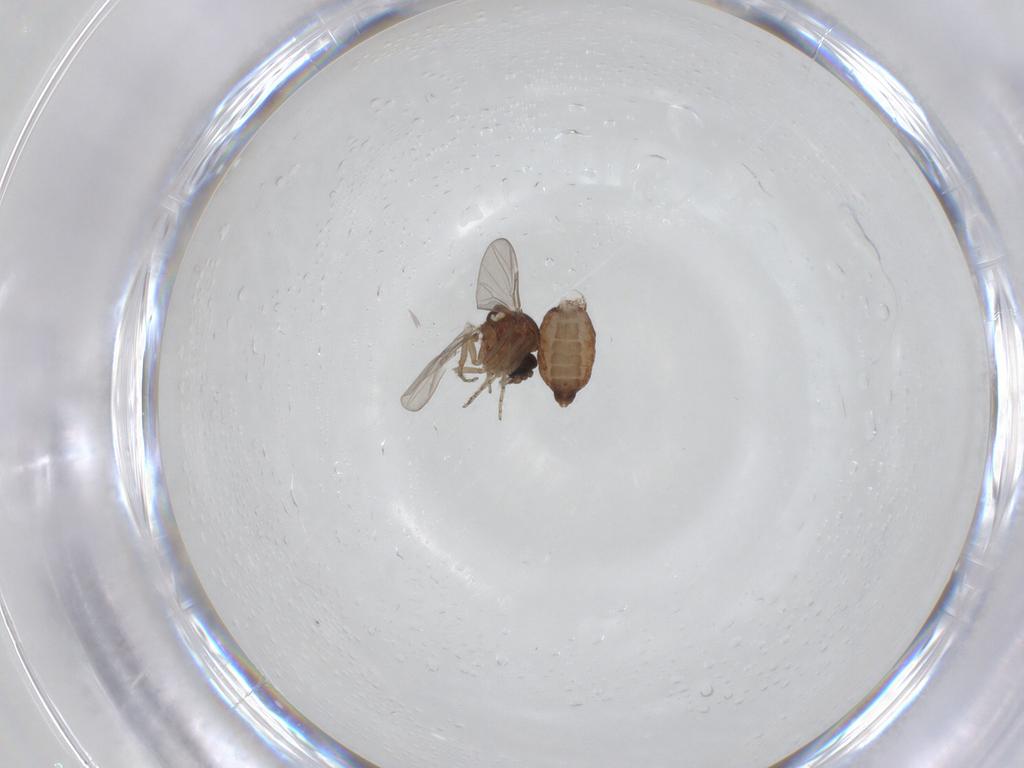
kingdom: Animalia
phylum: Arthropoda
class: Insecta
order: Diptera
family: Ceratopogonidae
